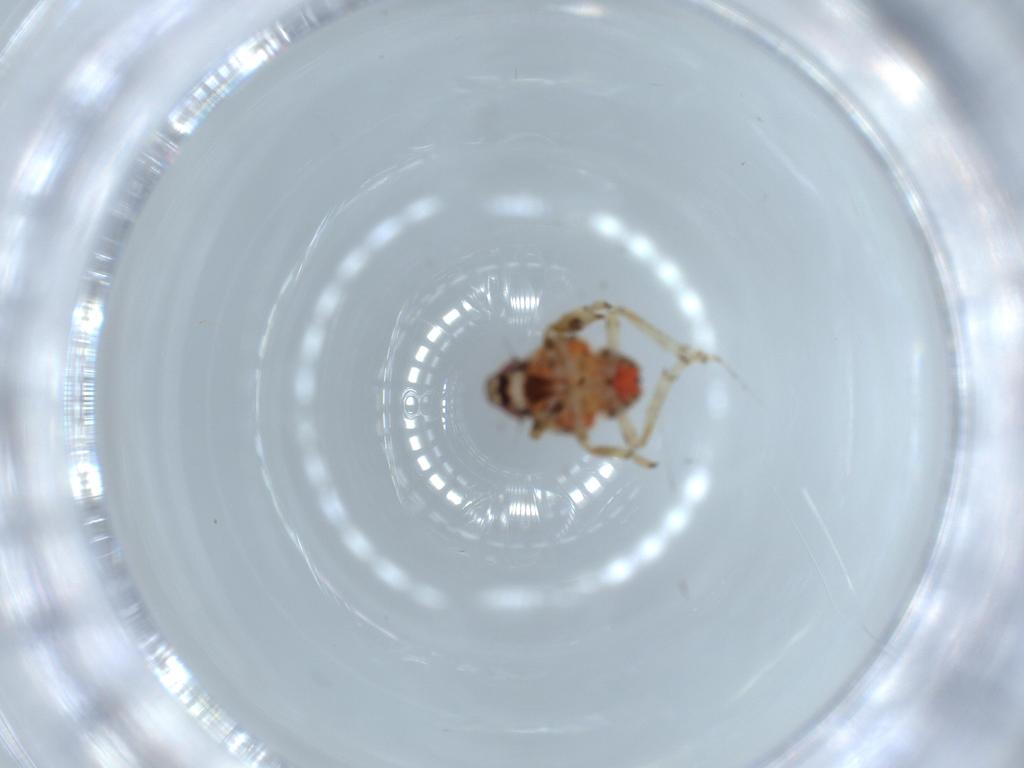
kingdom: Animalia
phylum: Arthropoda
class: Insecta
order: Hemiptera
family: Issidae
